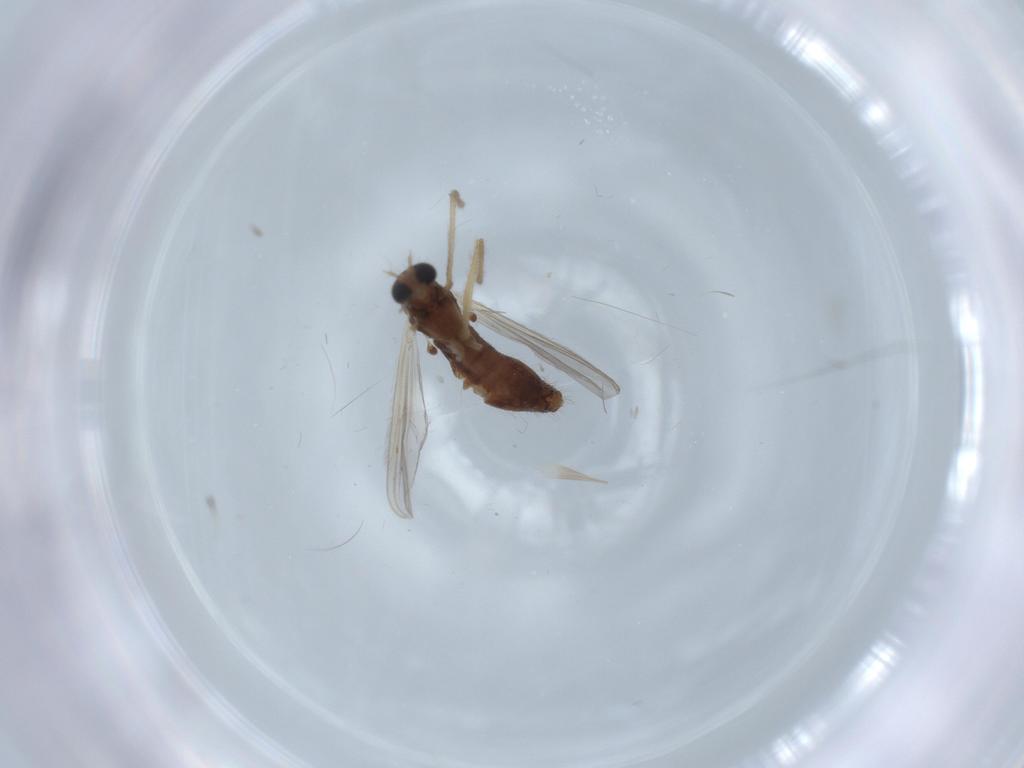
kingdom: Animalia
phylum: Arthropoda
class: Insecta
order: Diptera
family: Chironomidae
